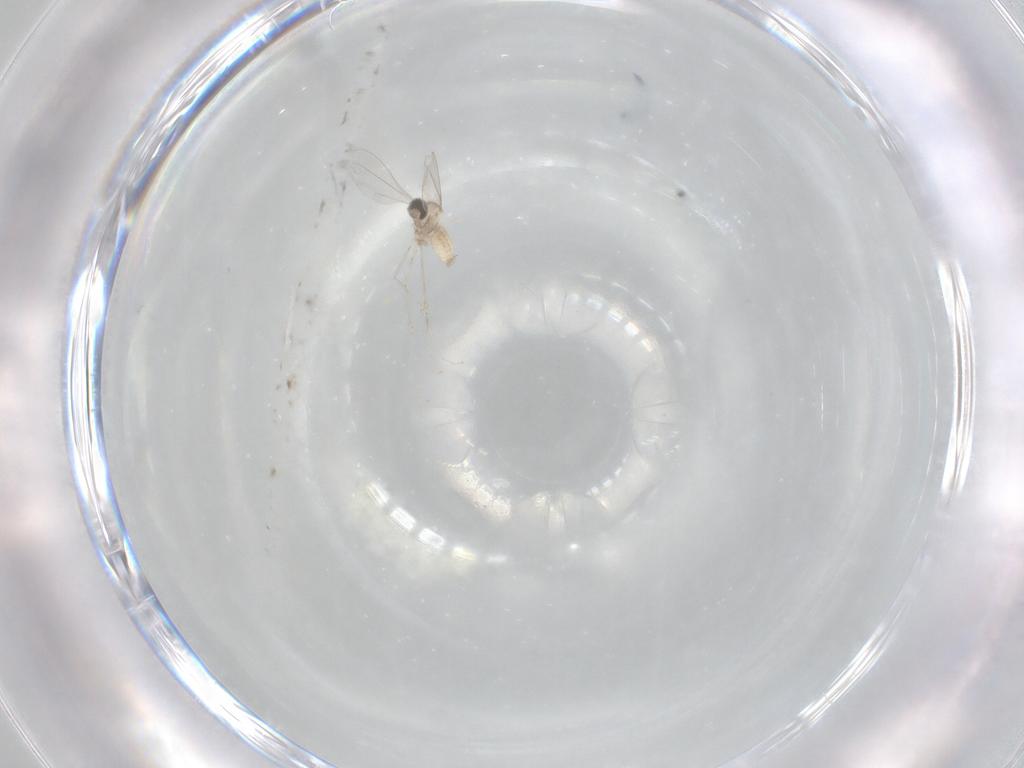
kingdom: Animalia
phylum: Arthropoda
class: Insecta
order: Diptera
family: Cecidomyiidae
